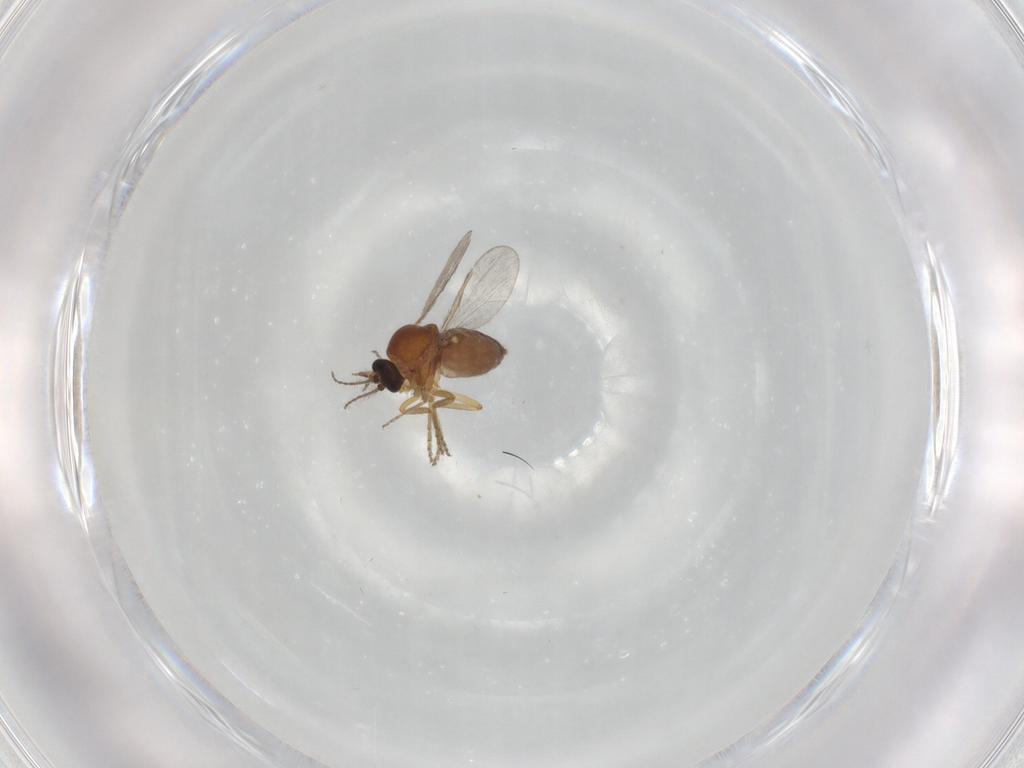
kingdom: Animalia
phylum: Arthropoda
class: Insecta
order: Diptera
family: Ceratopogonidae
